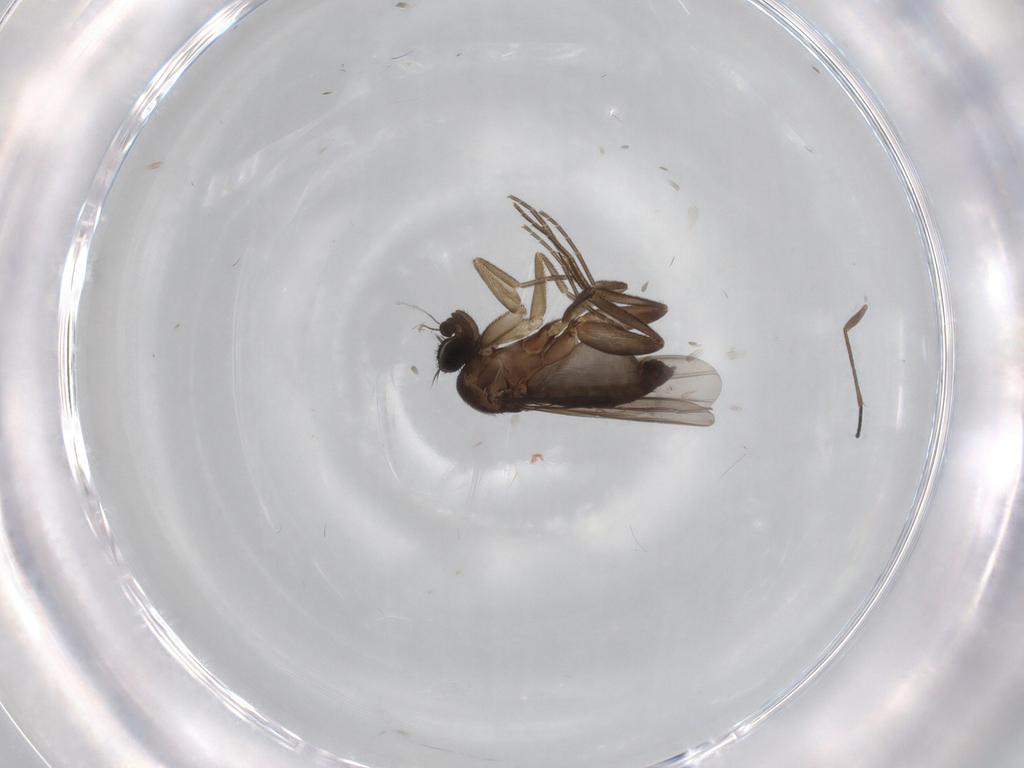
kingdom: Animalia
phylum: Arthropoda
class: Insecta
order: Diptera
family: Phoridae
